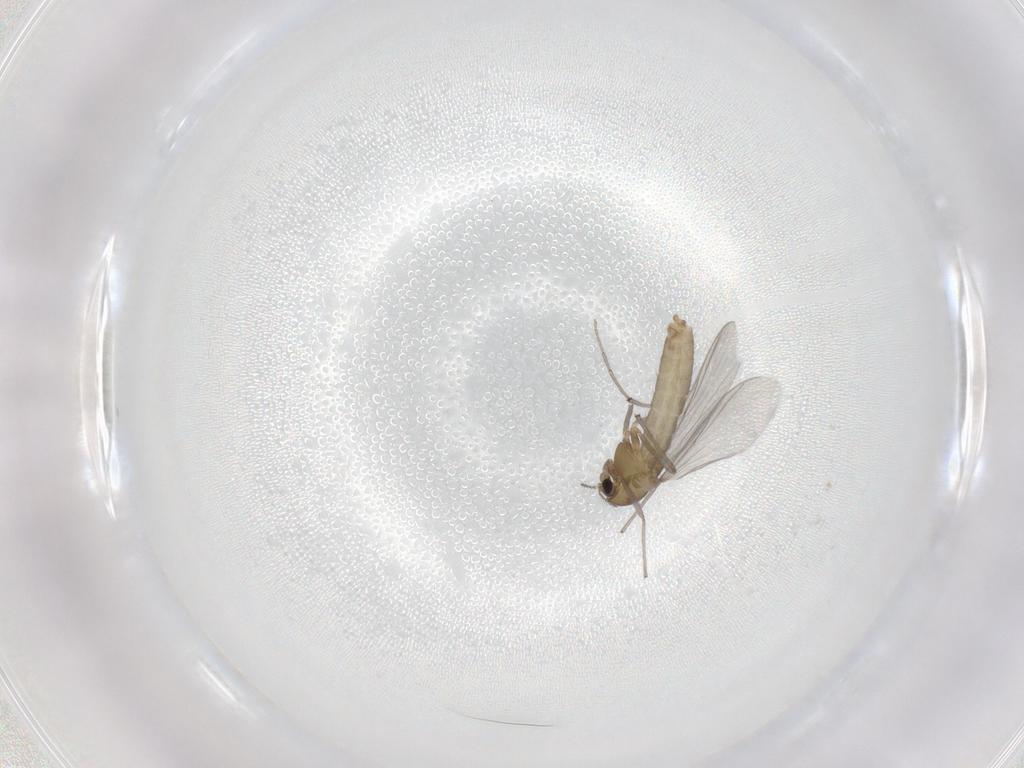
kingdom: Animalia
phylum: Arthropoda
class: Insecta
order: Diptera
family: Chironomidae
